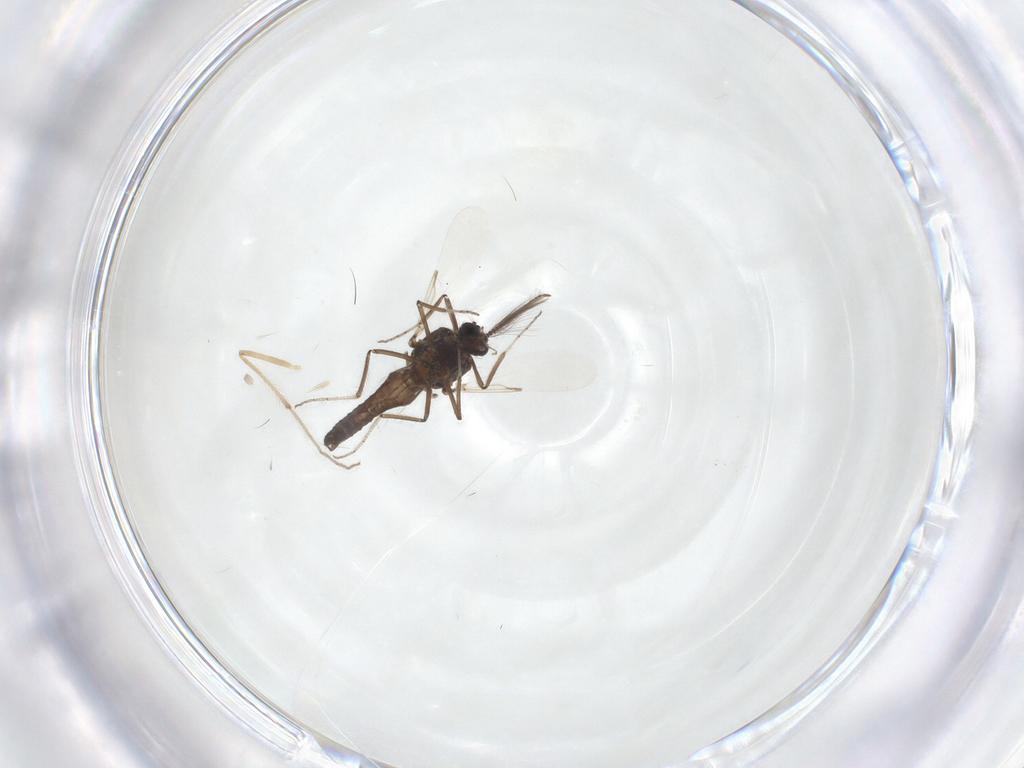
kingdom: Animalia
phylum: Arthropoda
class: Insecta
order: Diptera
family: Ceratopogonidae
